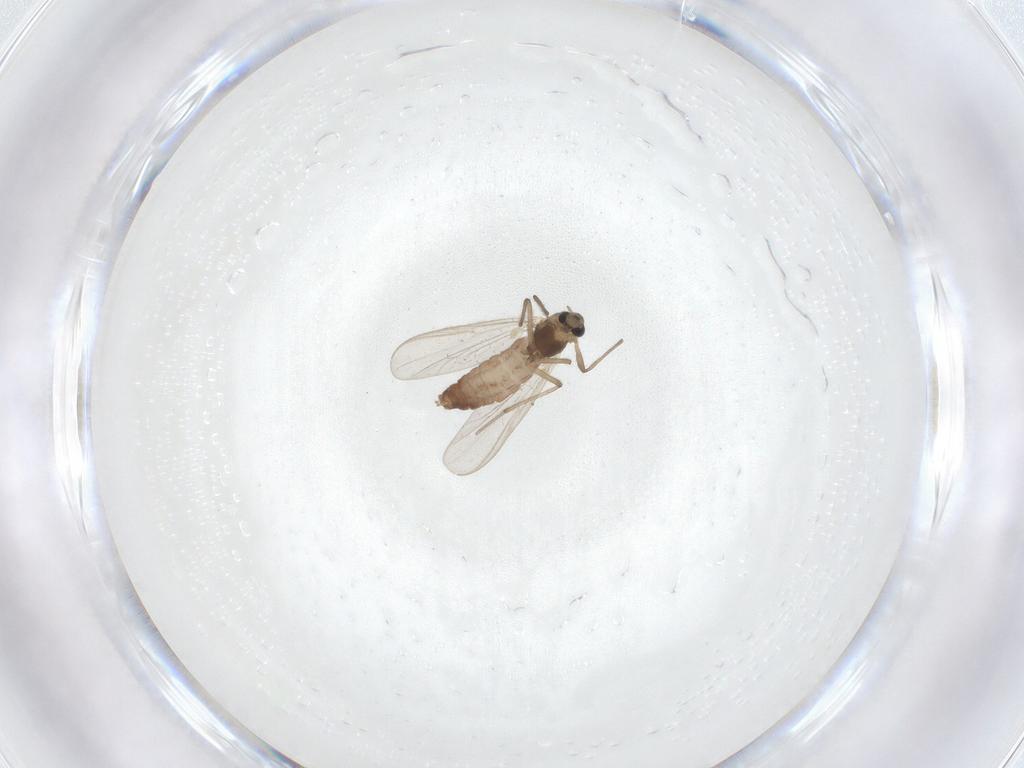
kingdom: Animalia
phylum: Arthropoda
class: Insecta
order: Diptera
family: Chironomidae
